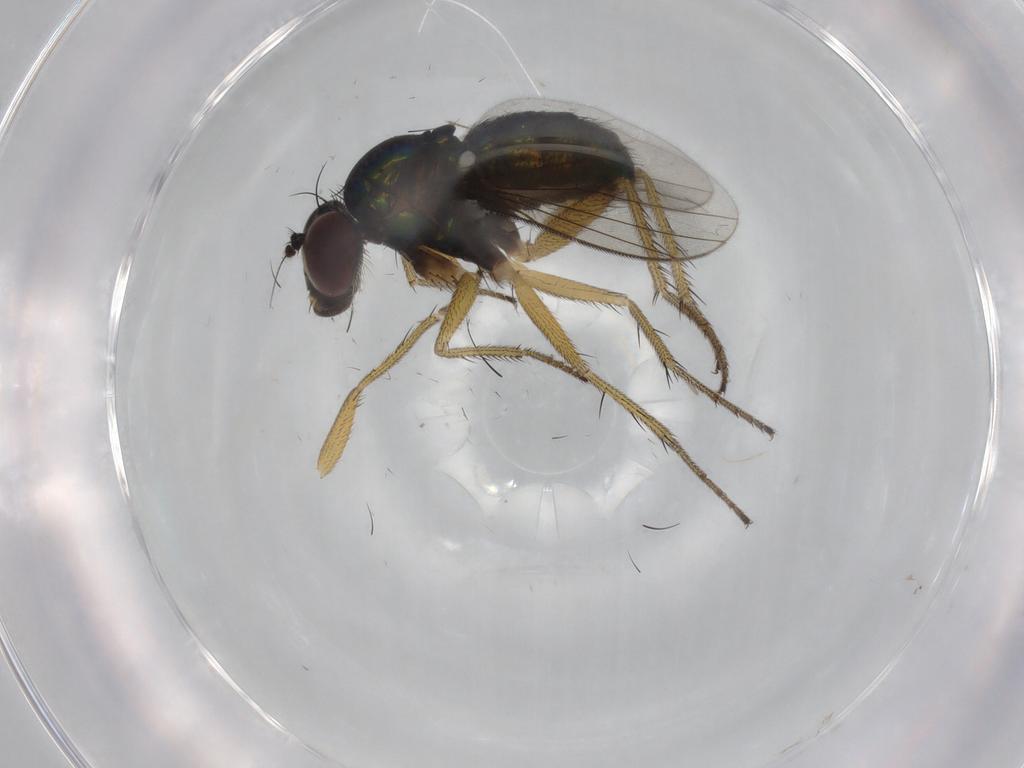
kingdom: Animalia
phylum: Arthropoda
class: Insecta
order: Diptera
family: Dolichopodidae
